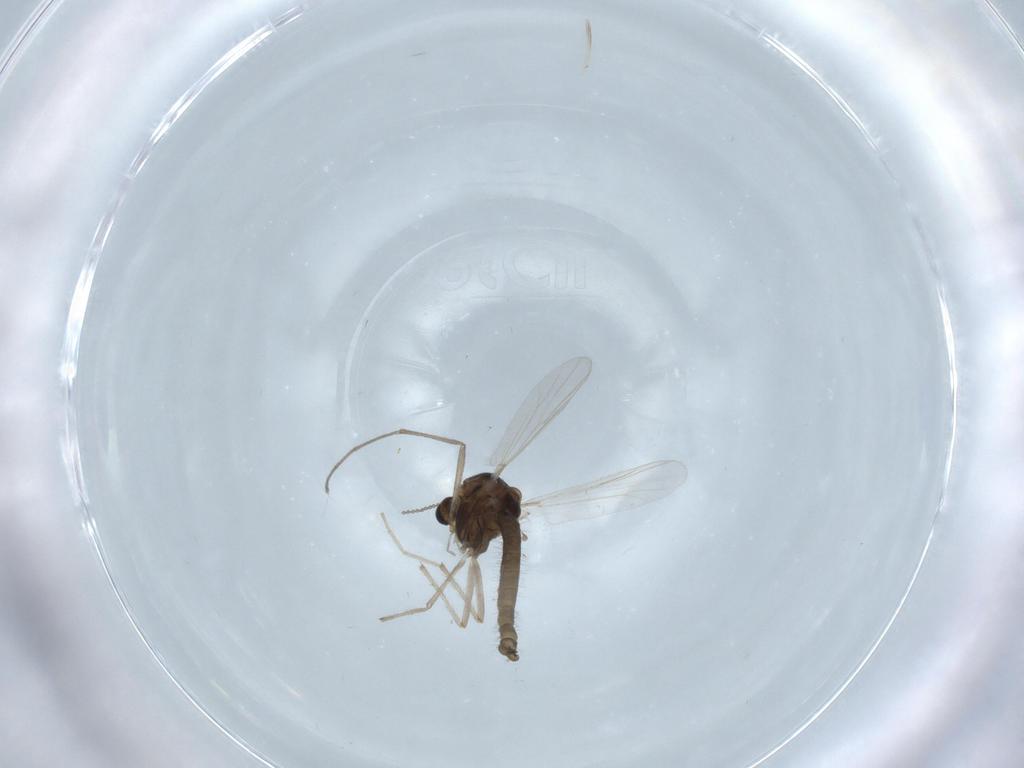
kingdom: Animalia
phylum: Arthropoda
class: Insecta
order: Diptera
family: Chironomidae
